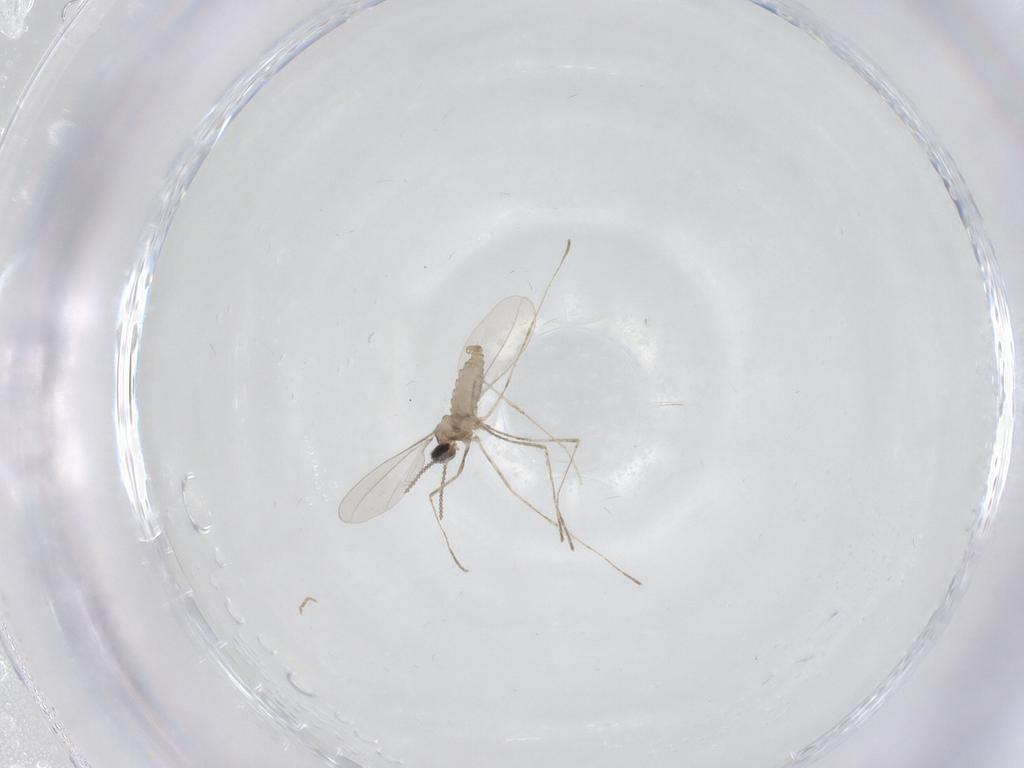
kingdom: Animalia
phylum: Arthropoda
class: Insecta
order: Diptera
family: Cecidomyiidae
